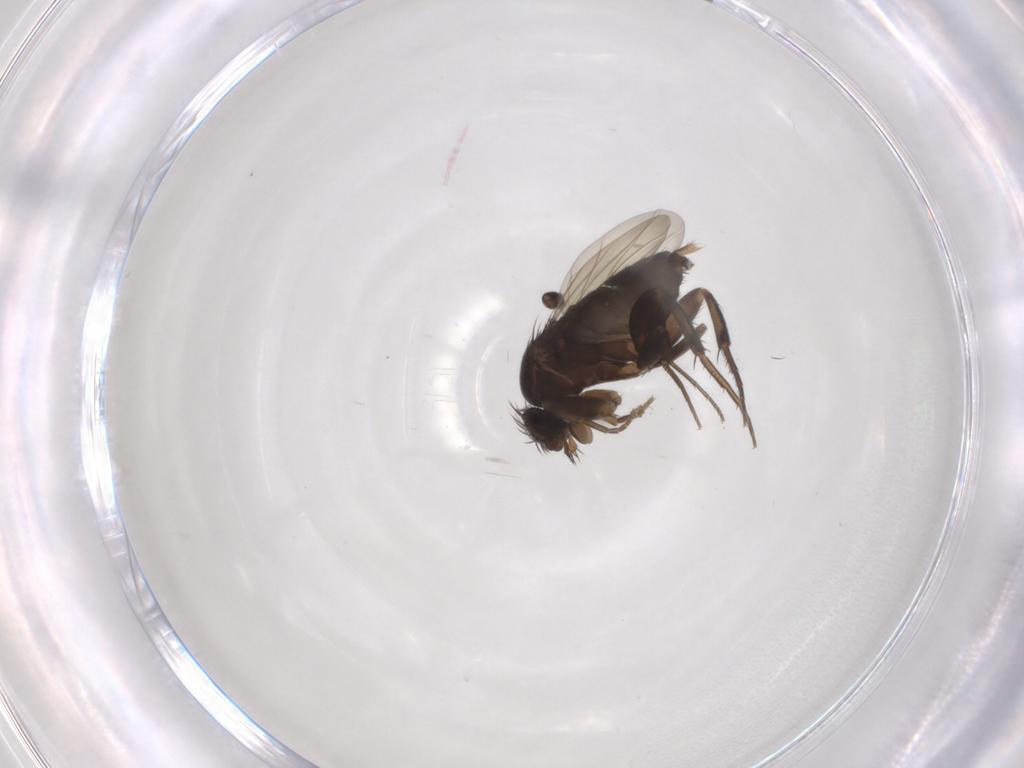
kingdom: Animalia
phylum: Arthropoda
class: Insecta
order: Diptera
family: Phoridae
